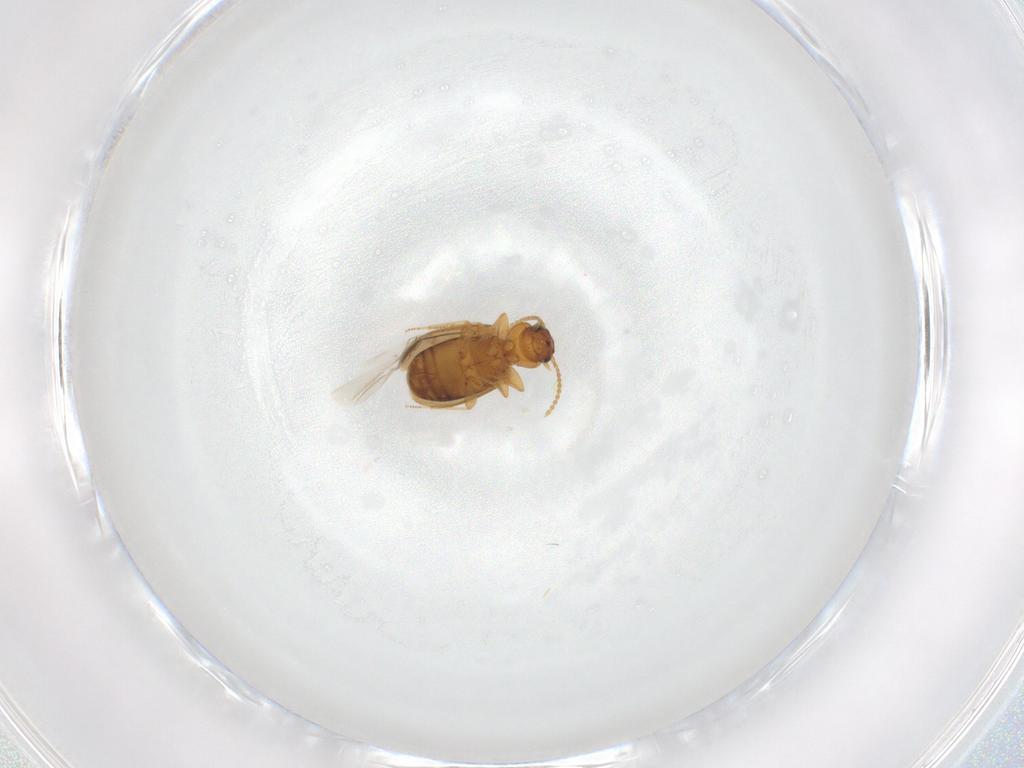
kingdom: Animalia
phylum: Arthropoda
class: Insecta
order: Coleoptera
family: Carabidae
